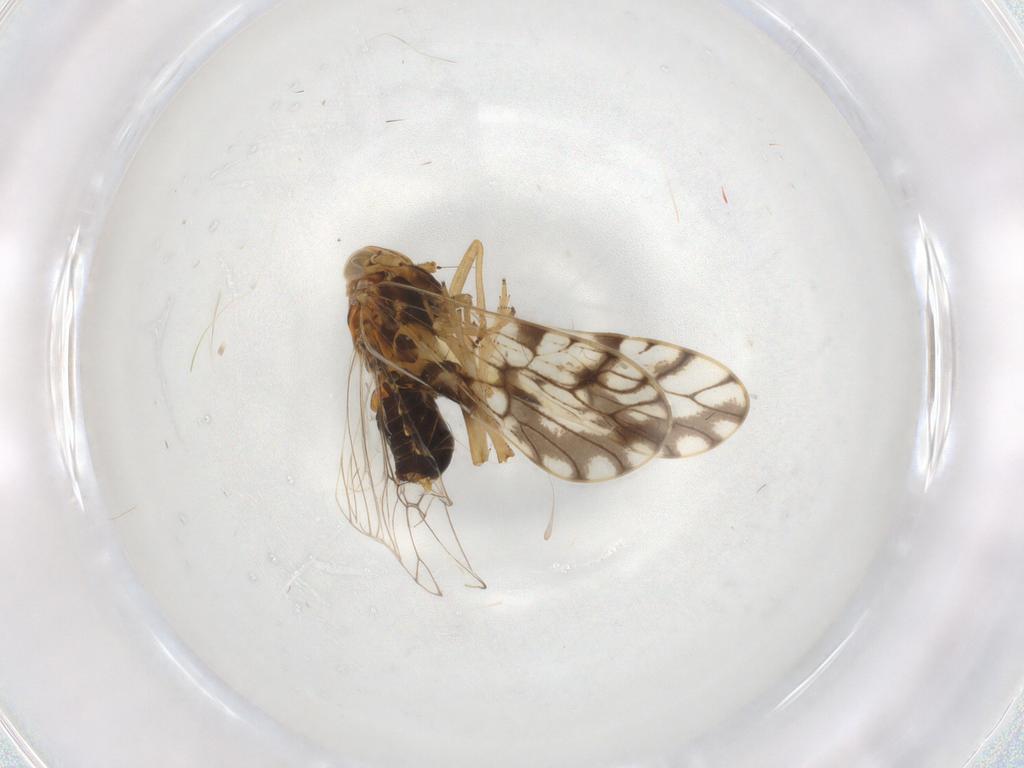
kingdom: Animalia
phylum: Arthropoda
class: Insecta
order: Hemiptera
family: Delphacidae
